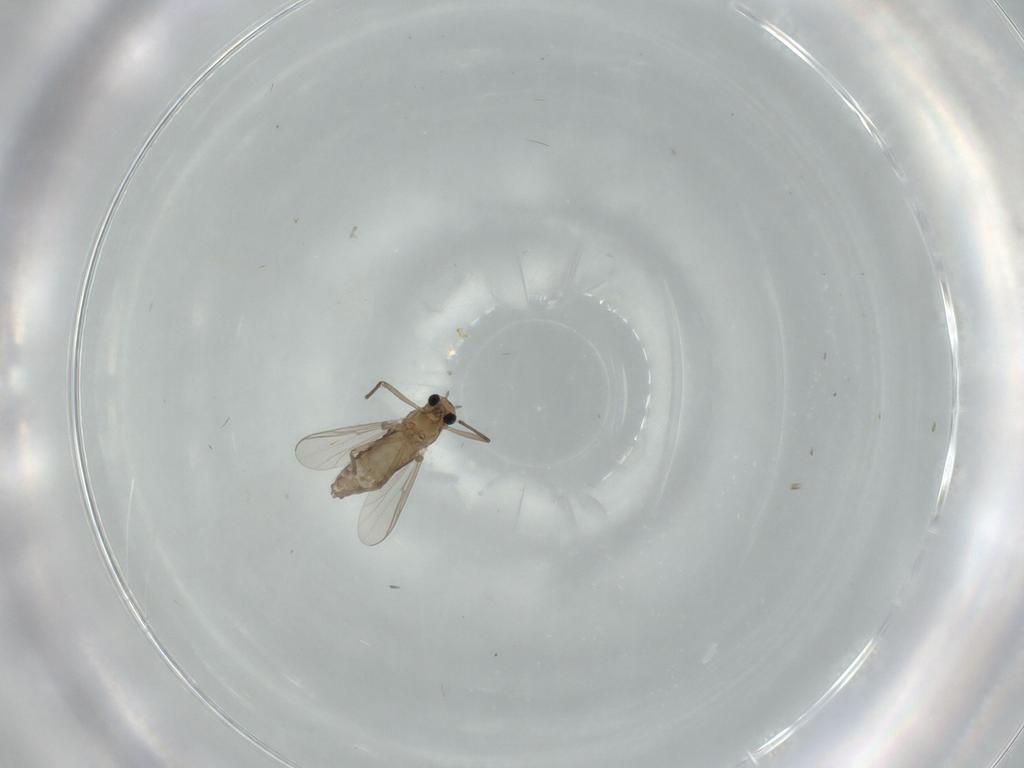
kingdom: Animalia
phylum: Arthropoda
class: Insecta
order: Diptera
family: Chironomidae
